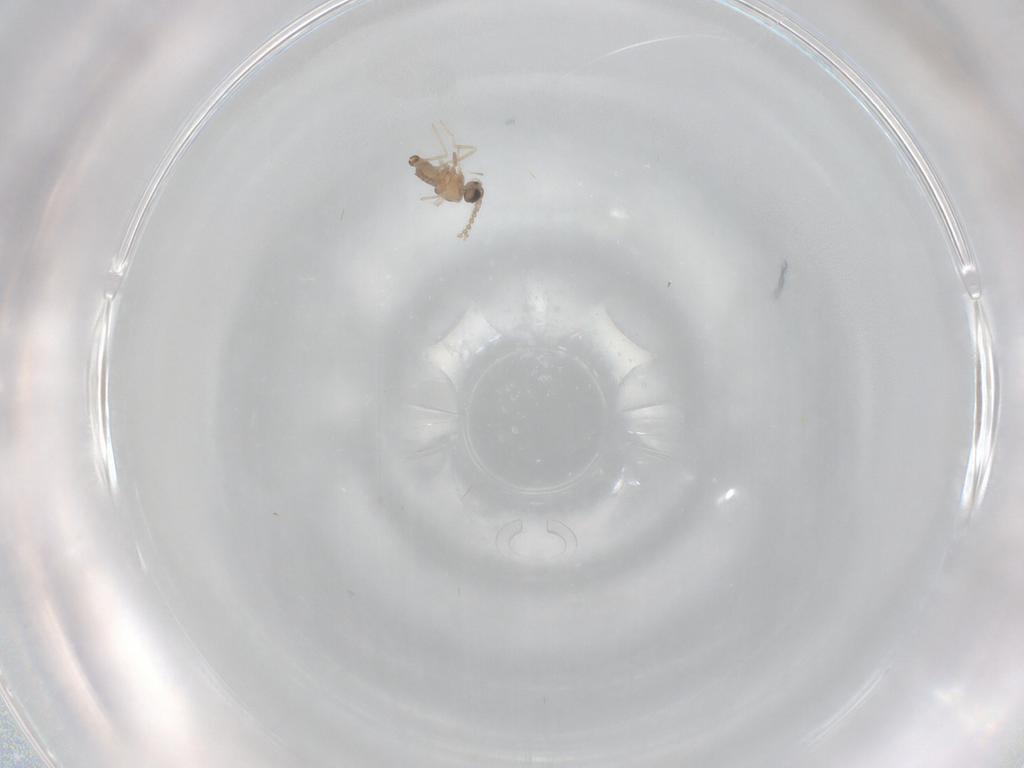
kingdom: Animalia
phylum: Arthropoda
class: Insecta
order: Diptera
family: Cecidomyiidae
